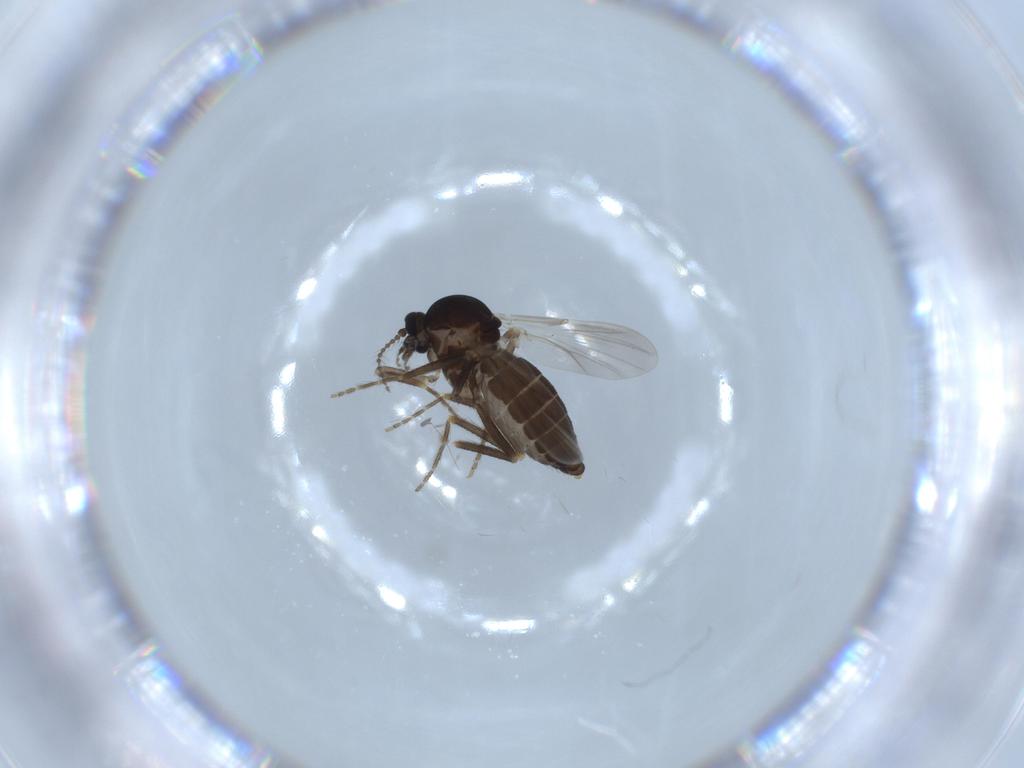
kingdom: Animalia
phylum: Arthropoda
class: Insecta
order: Diptera
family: Ceratopogonidae
